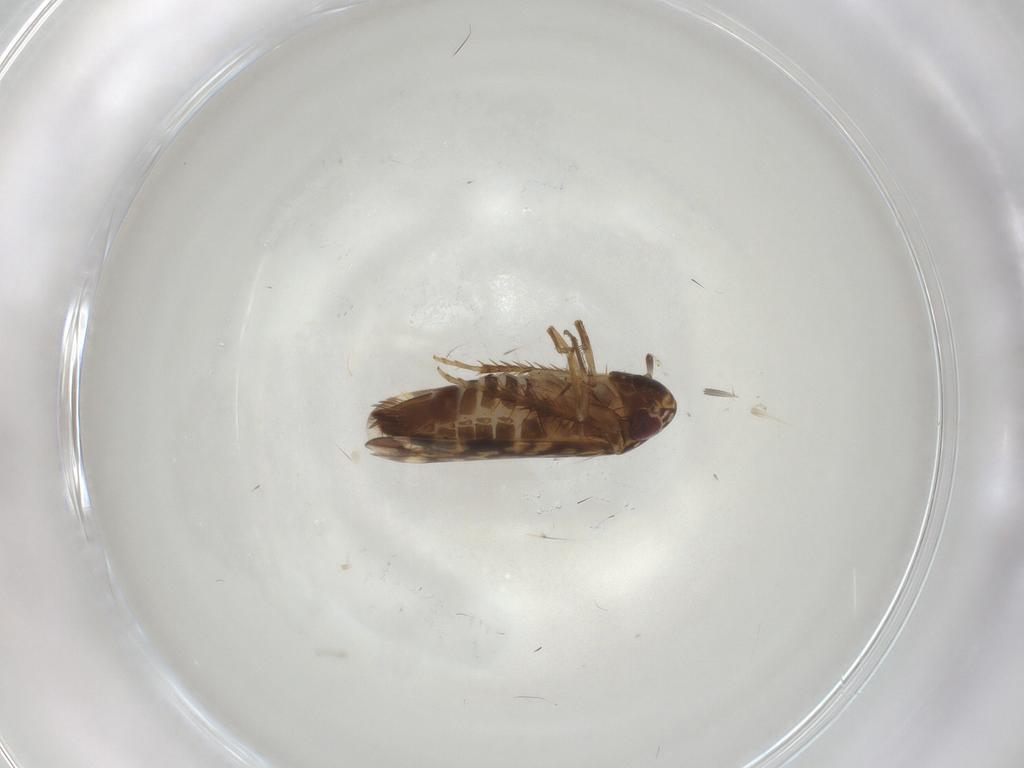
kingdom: Animalia
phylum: Arthropoda
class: Insecta
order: Hemiptera
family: Cicadellidae
